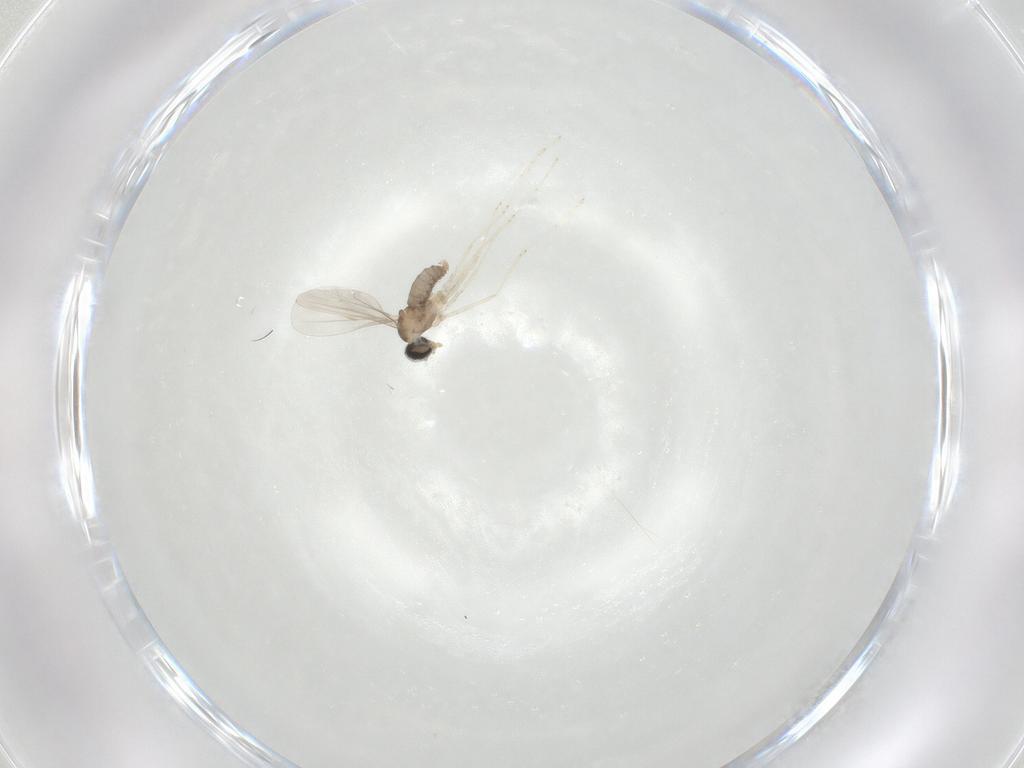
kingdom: Animalia
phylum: Arthropoda
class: Insecta
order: Diptera
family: Cecidomyiidae
